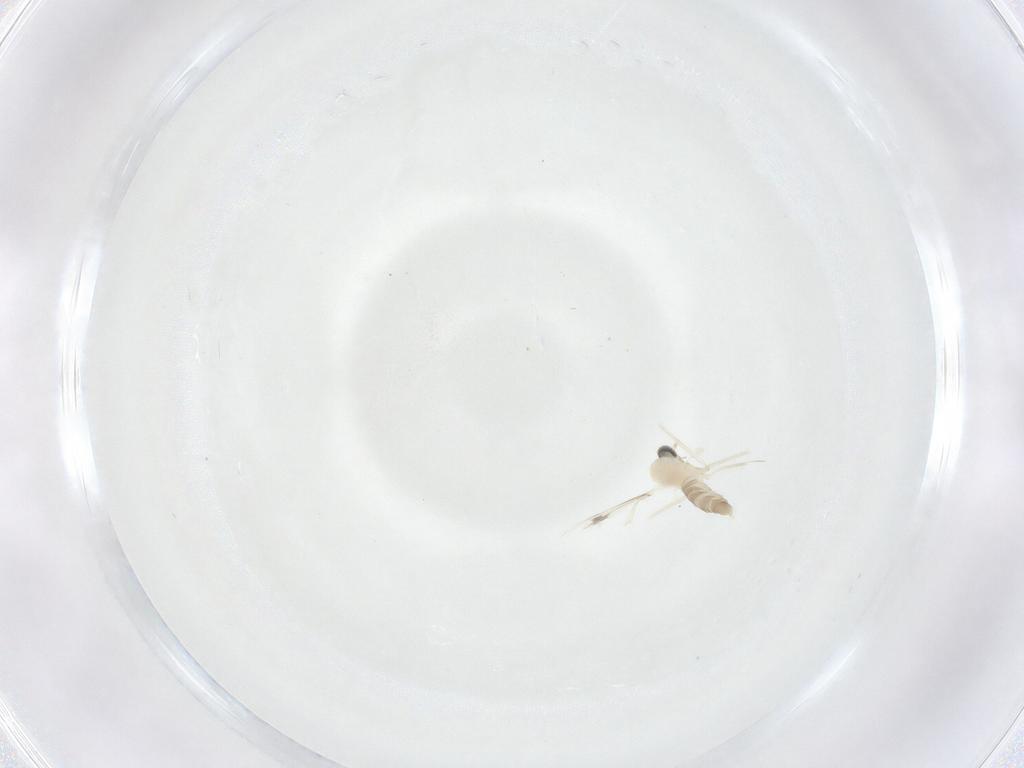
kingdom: Animalia
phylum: Arthropoda
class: Insecta
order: Diptera
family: Cecidomyiidae
